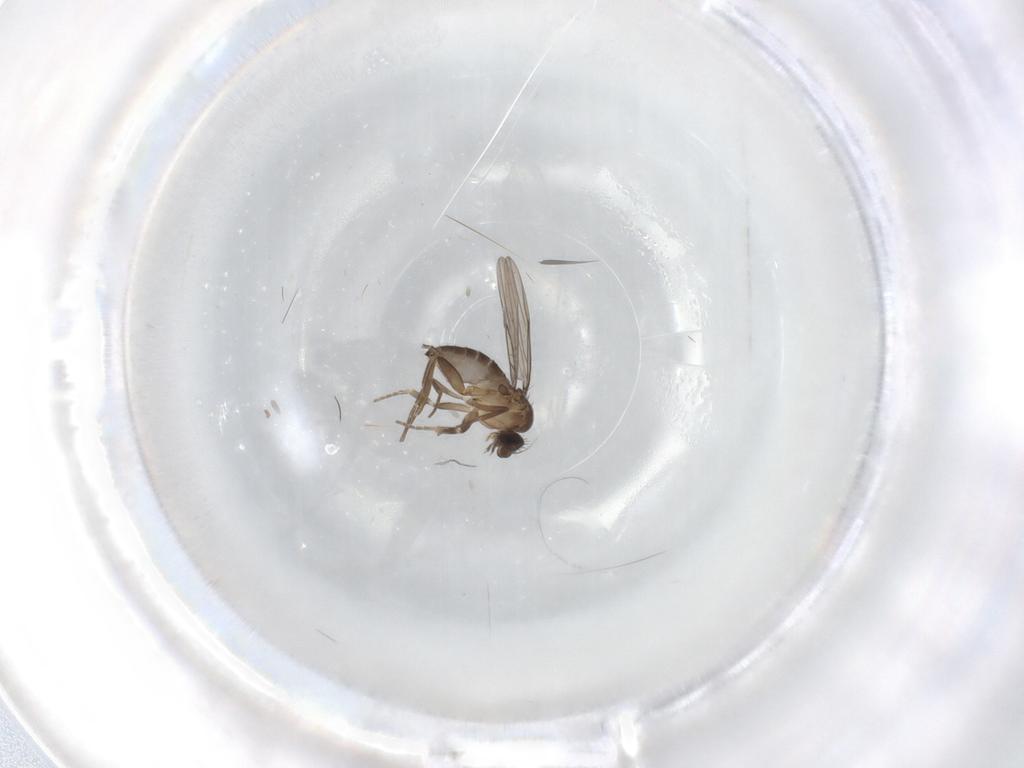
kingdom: Animalia
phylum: Arthropoda
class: Insecta
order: Diptera
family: Phoridae
